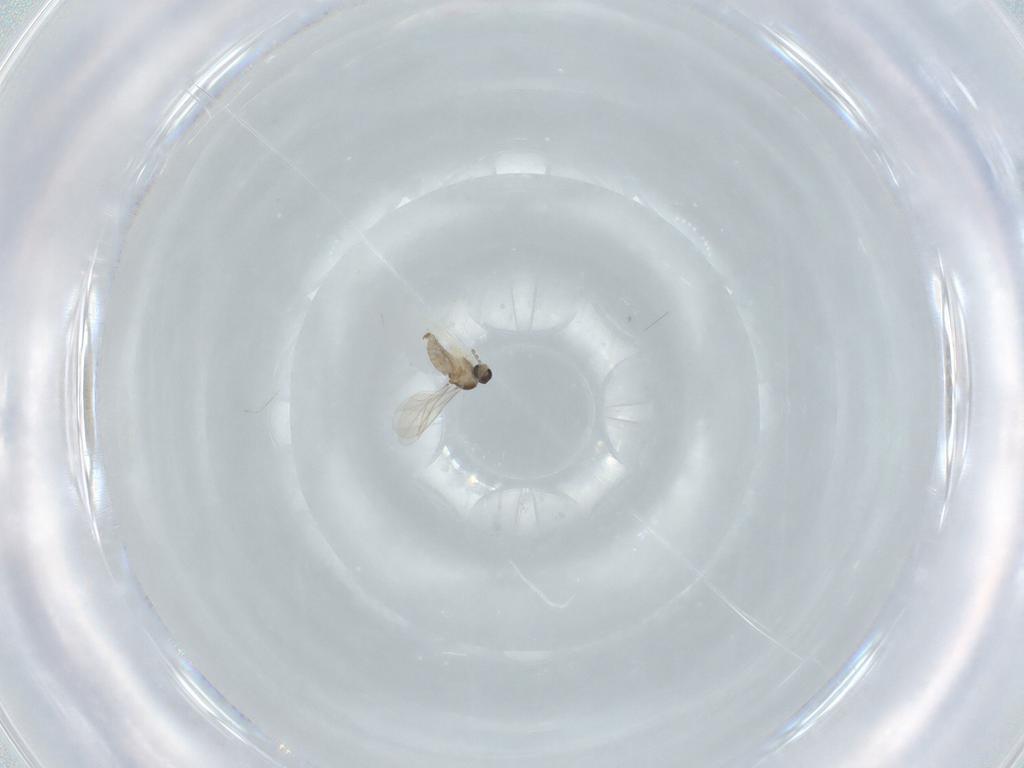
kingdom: Animalia
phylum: Arthropoda
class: Insecta
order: Diptera
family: Cecidomyiidae
